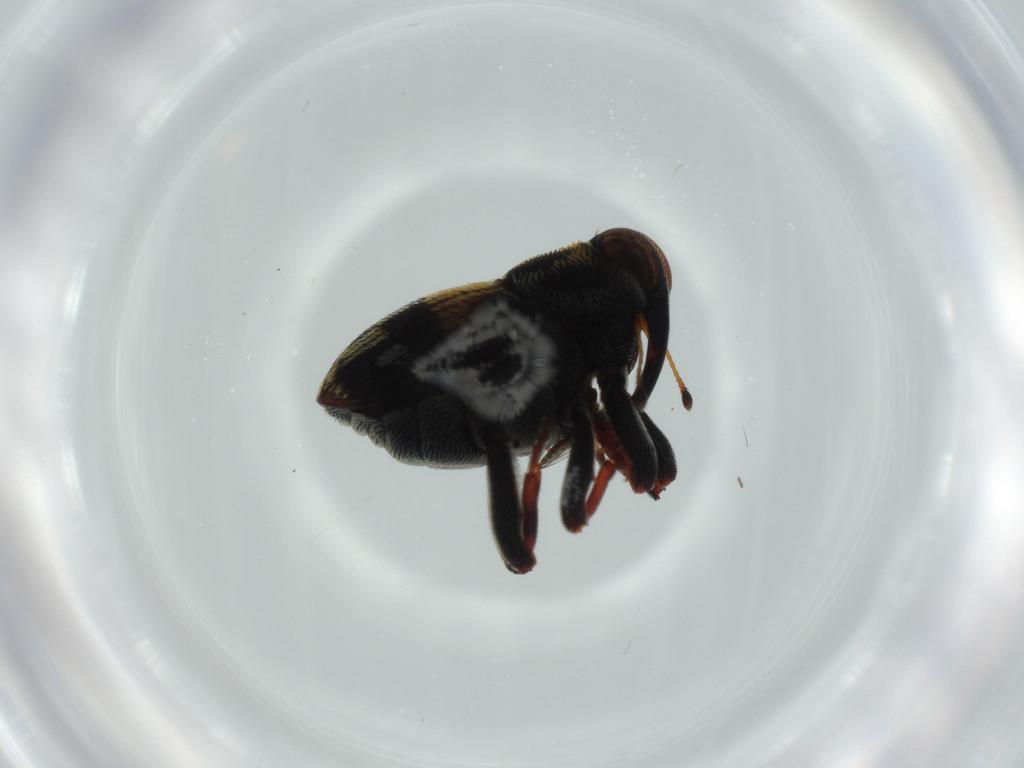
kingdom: Animalia
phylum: Arthropoda
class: Insecta
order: Coleoptera
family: Curculionidae
